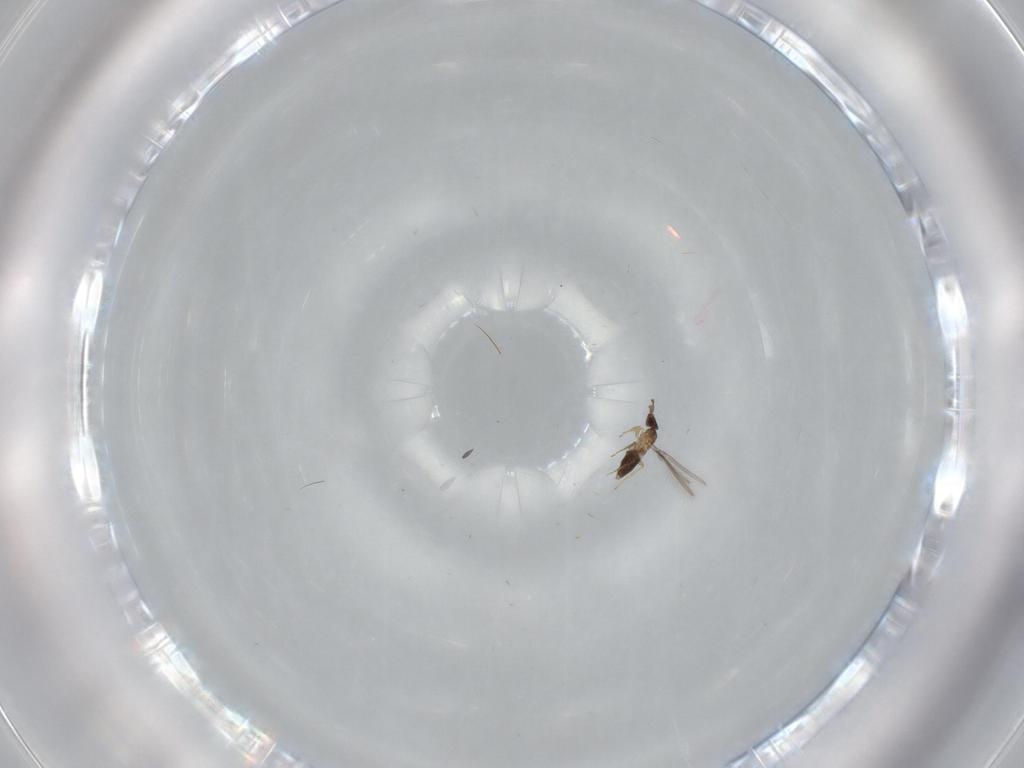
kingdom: Animalia
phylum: Arthropoda
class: Insecta
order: Hymenoptera
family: Mymaridae
